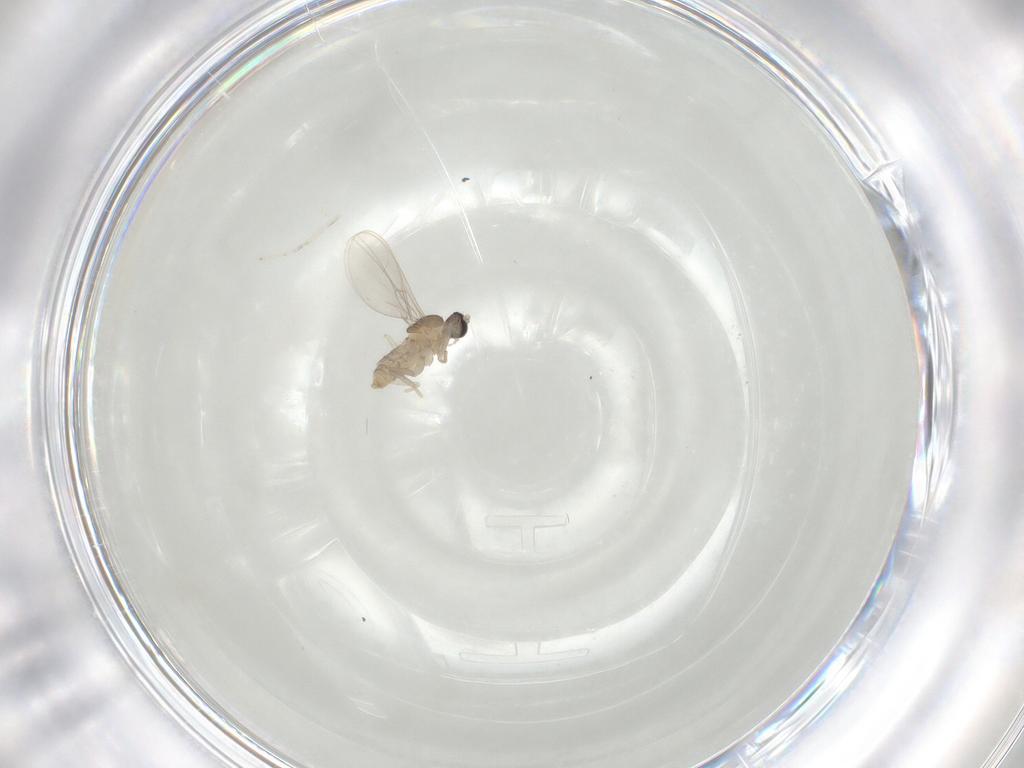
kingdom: Animalia
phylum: Arthropoda
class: Insecta
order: Diptera
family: Cecidomyiidae
